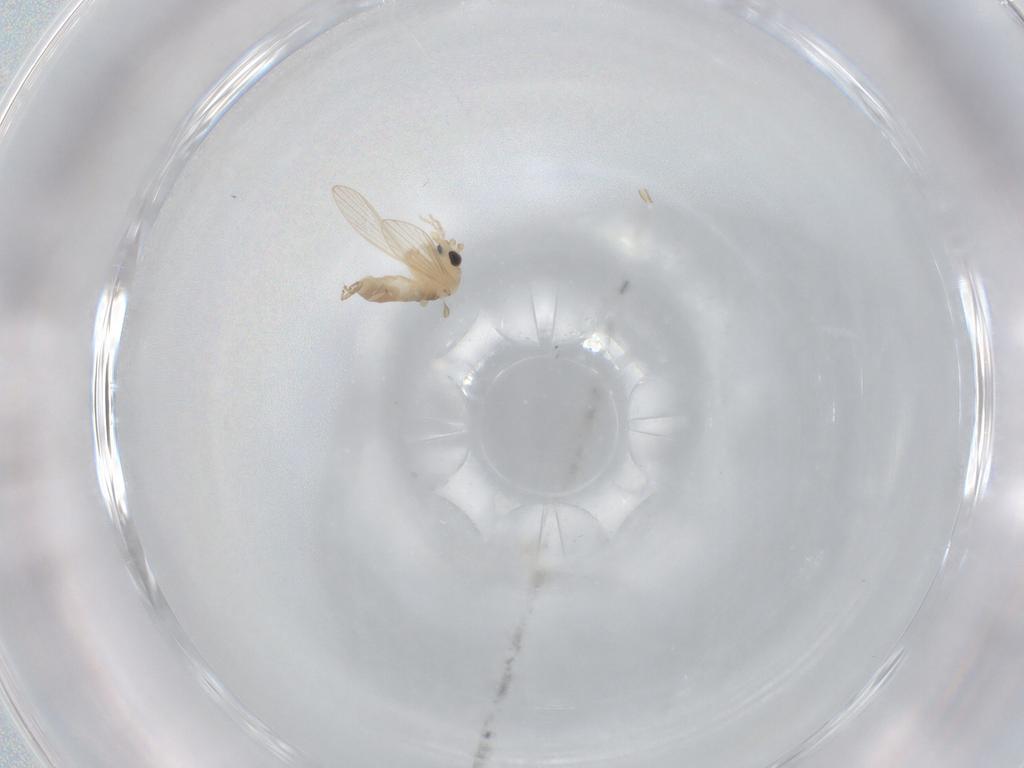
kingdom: Animalia
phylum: Arthropoda
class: Insecta
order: Diptera
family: Psychodidae
